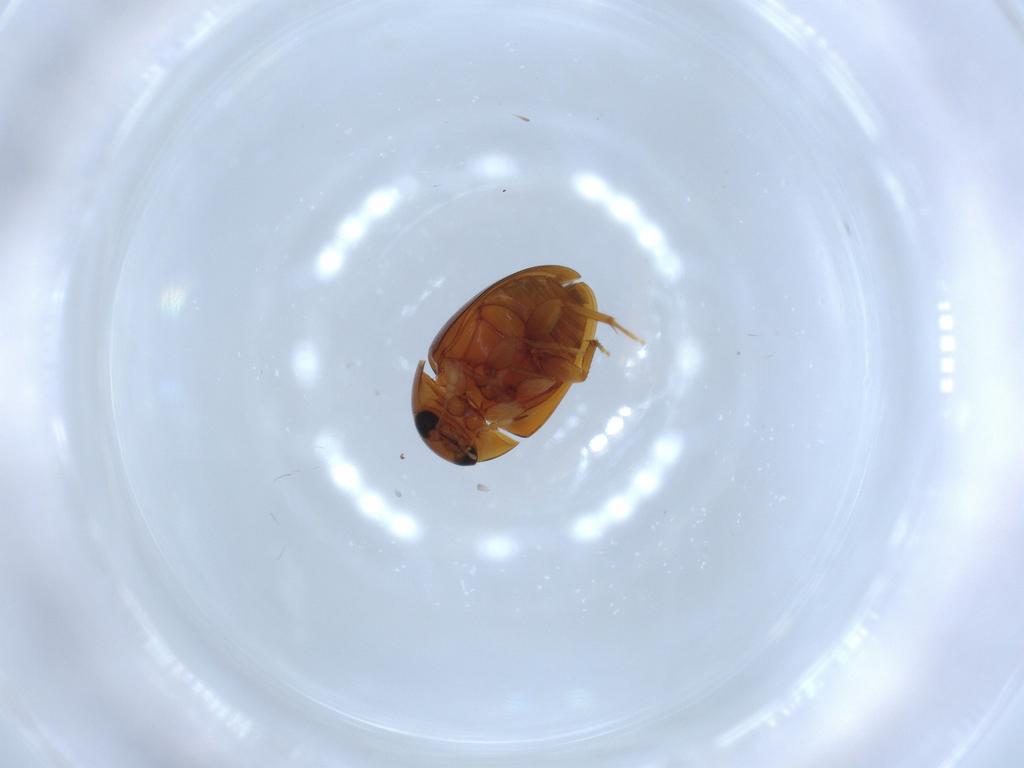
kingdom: Animalia
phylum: Arthropoda
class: Insecta
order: Coleoptera
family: Phalacridae
